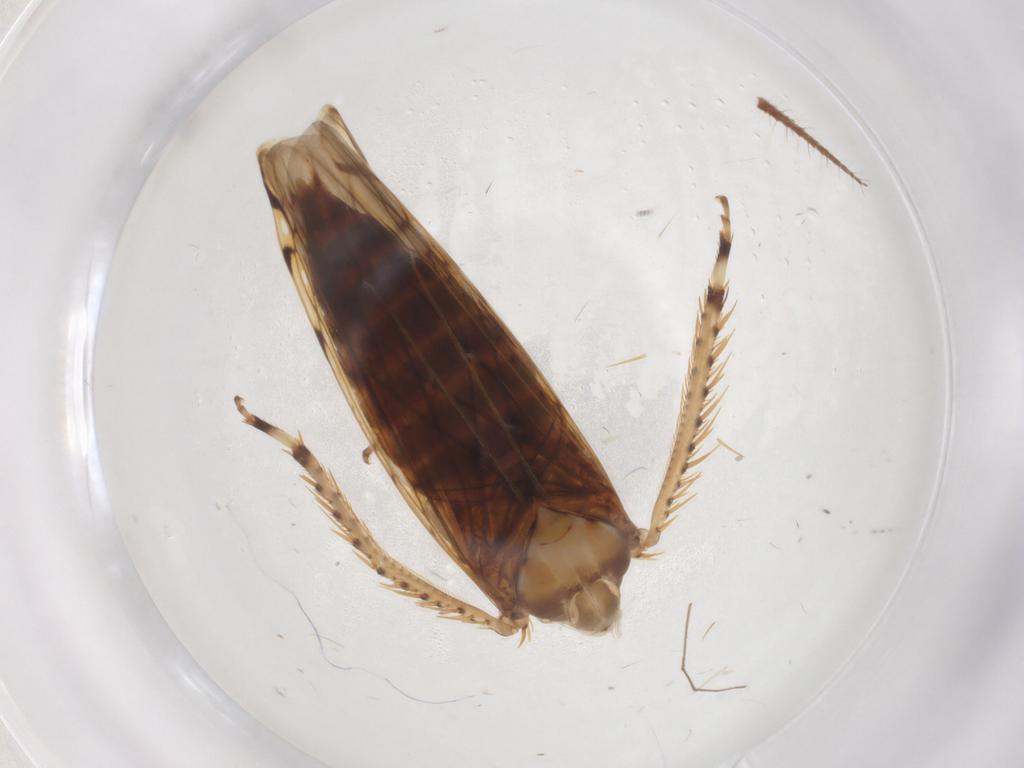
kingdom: Animalia
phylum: Arthropoda
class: Insecta
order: Hemiptera
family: Cicadellidae
